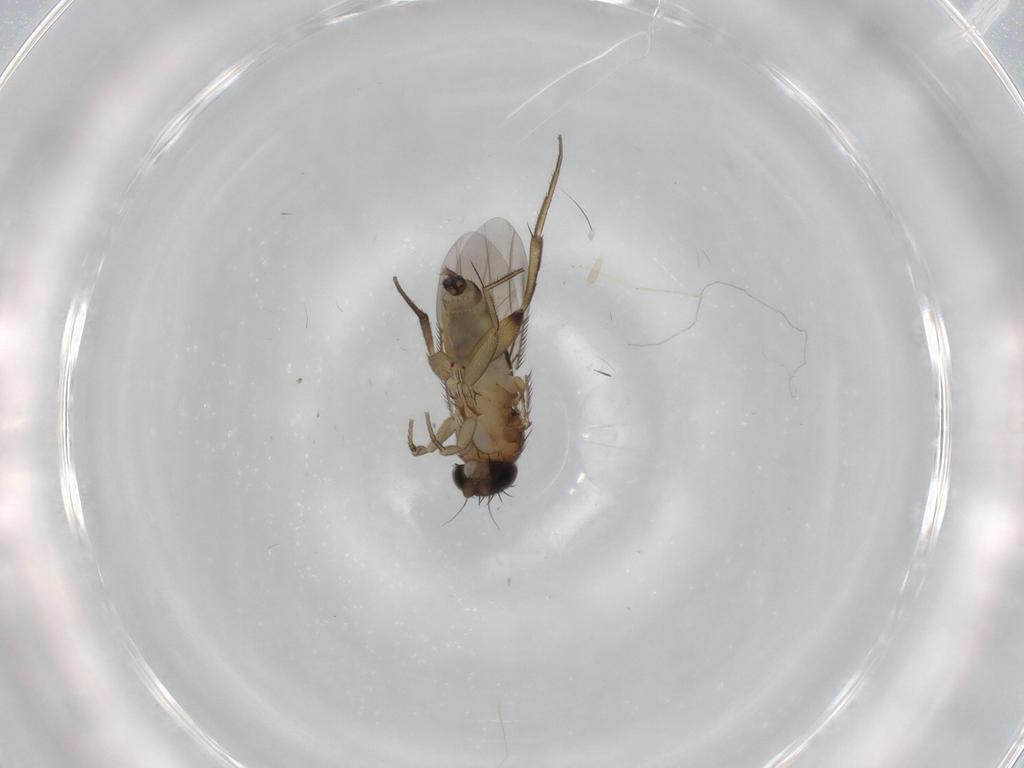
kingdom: Animalia
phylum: Arthropoda
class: Insecta
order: Diptera
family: Phoridae
